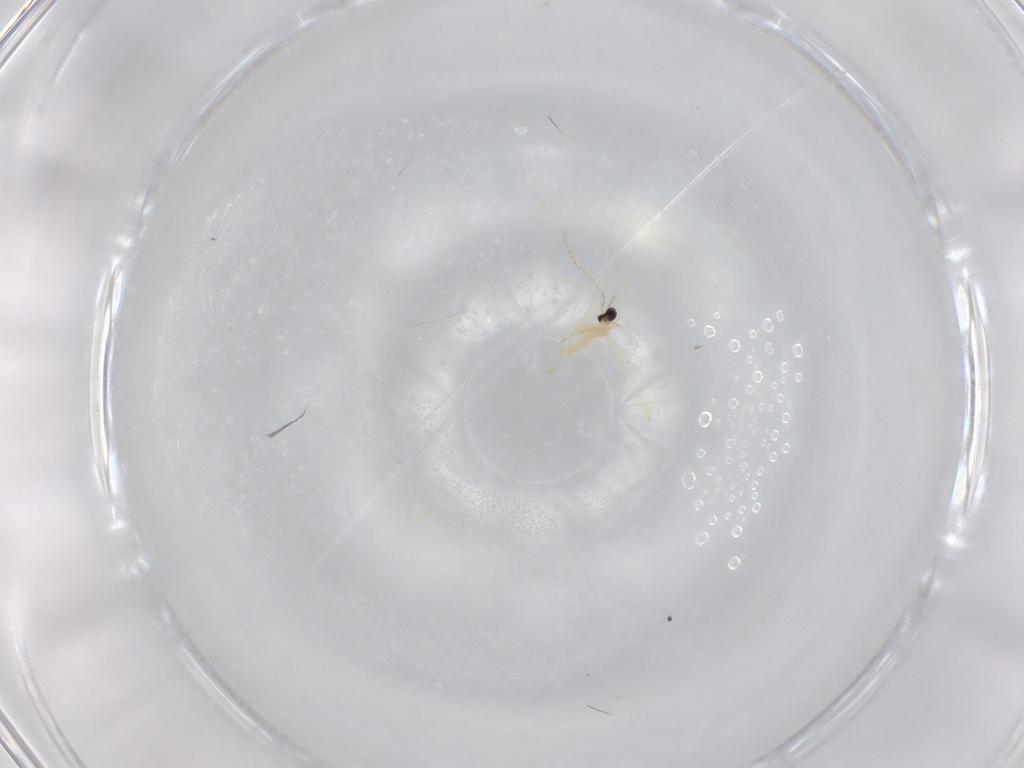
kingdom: Animalia
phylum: Arthropoda
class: Insecta
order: Diptera
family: Cecidomyiidae
